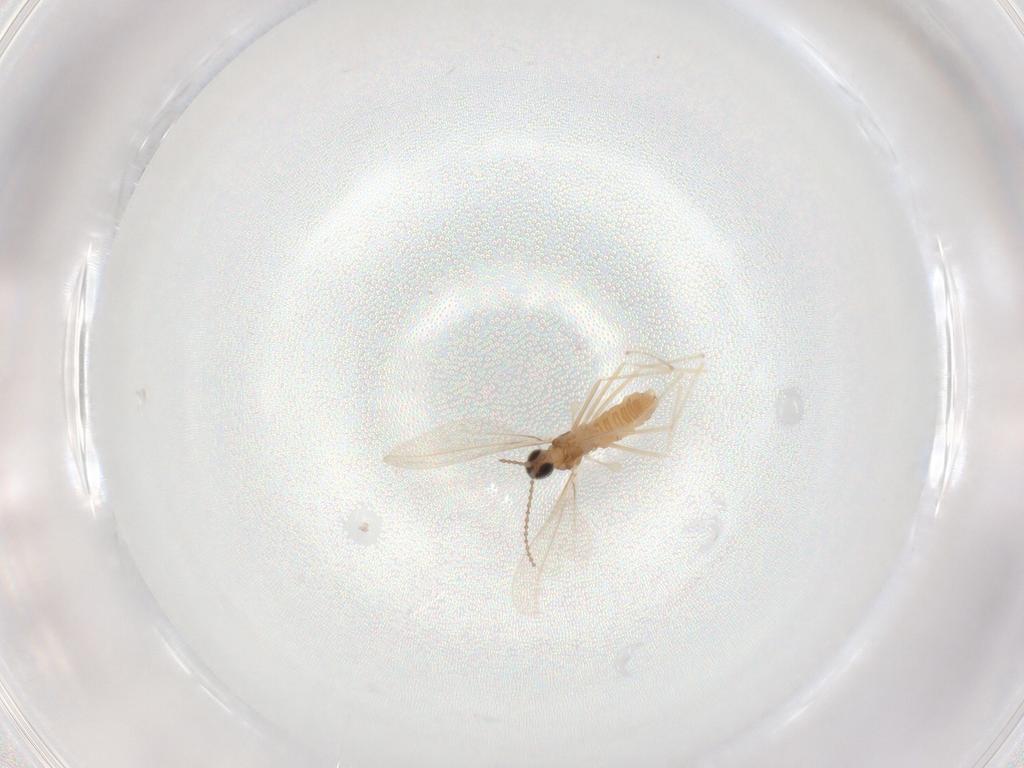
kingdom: Animalia
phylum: Arthropoda
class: Insecta
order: Diptera
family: Cecidomyiidae
